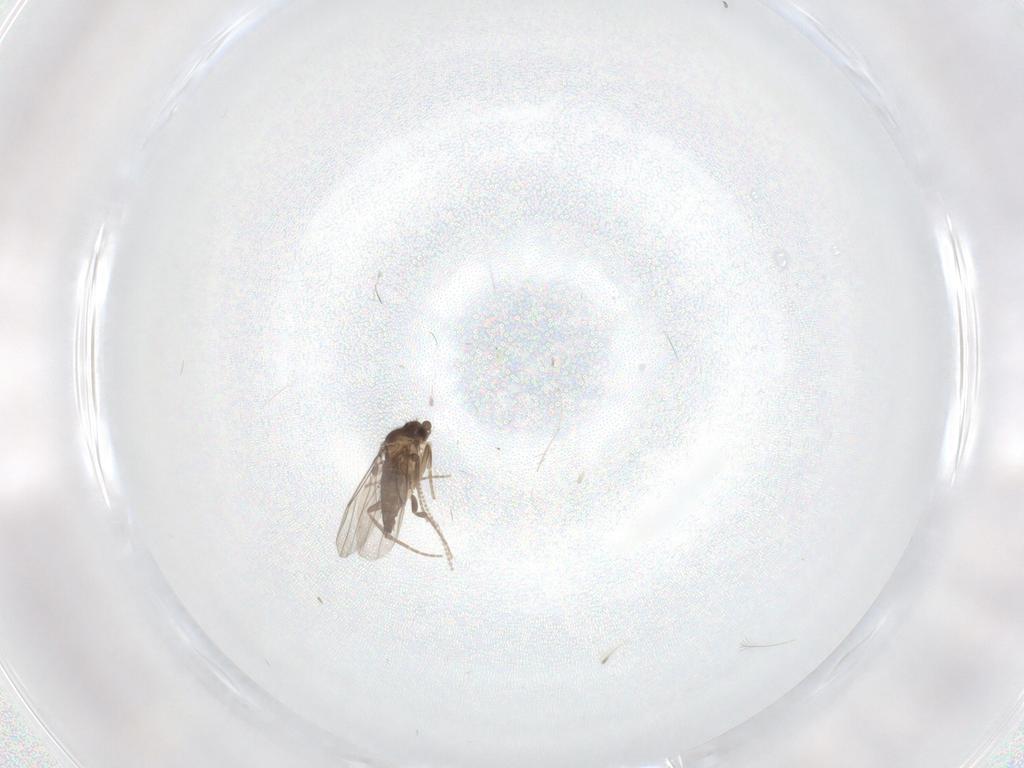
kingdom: Animalia
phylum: Arthropoda
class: Insecta
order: Diptera
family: Cecidomyiidae
